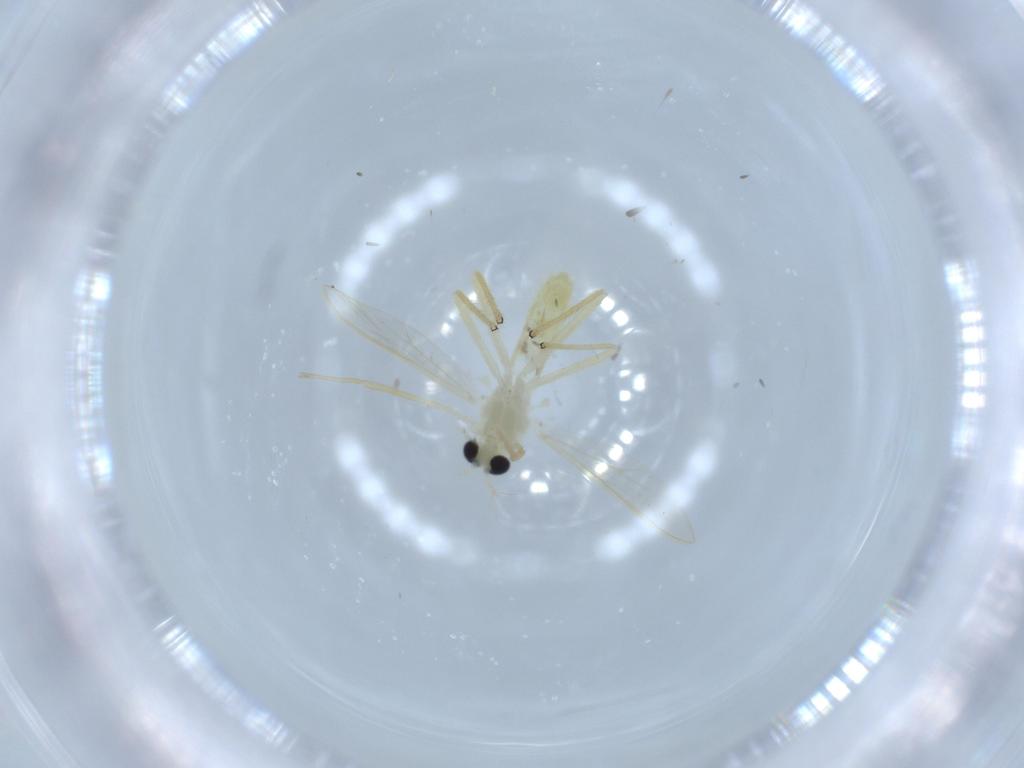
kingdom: Animalia
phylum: Arthropoda
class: Insecta
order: Diptera
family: Chironomidae
